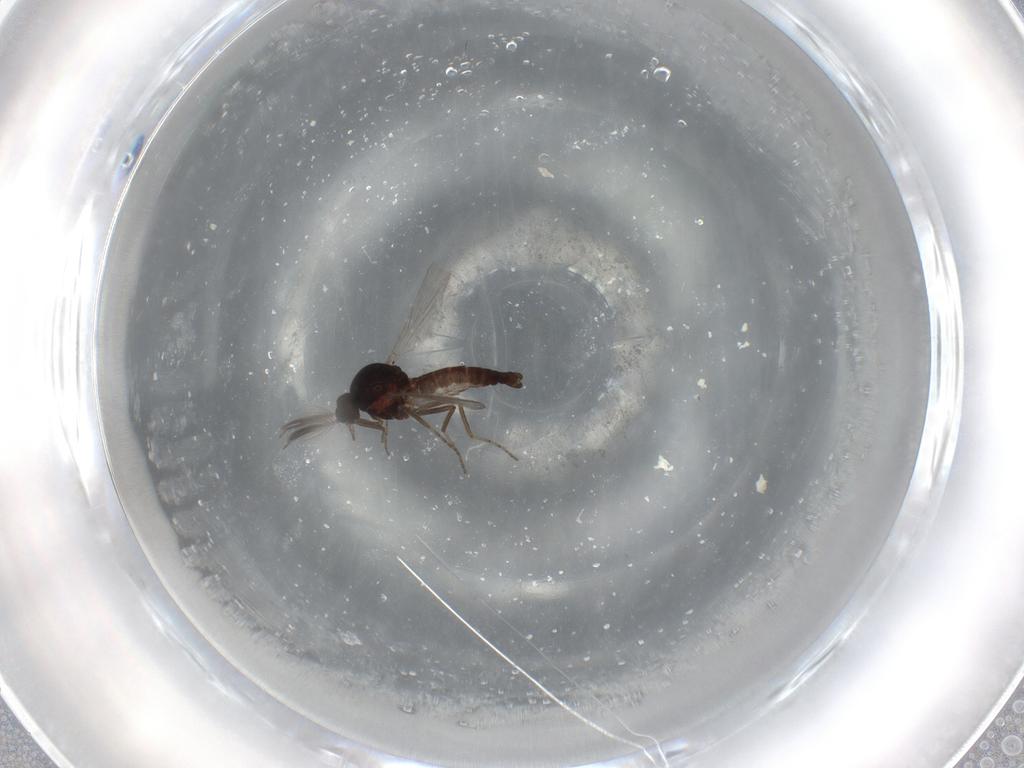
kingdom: Animalia
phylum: Arthropoda
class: Insecta
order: Diptera
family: Ceratopogonidae
